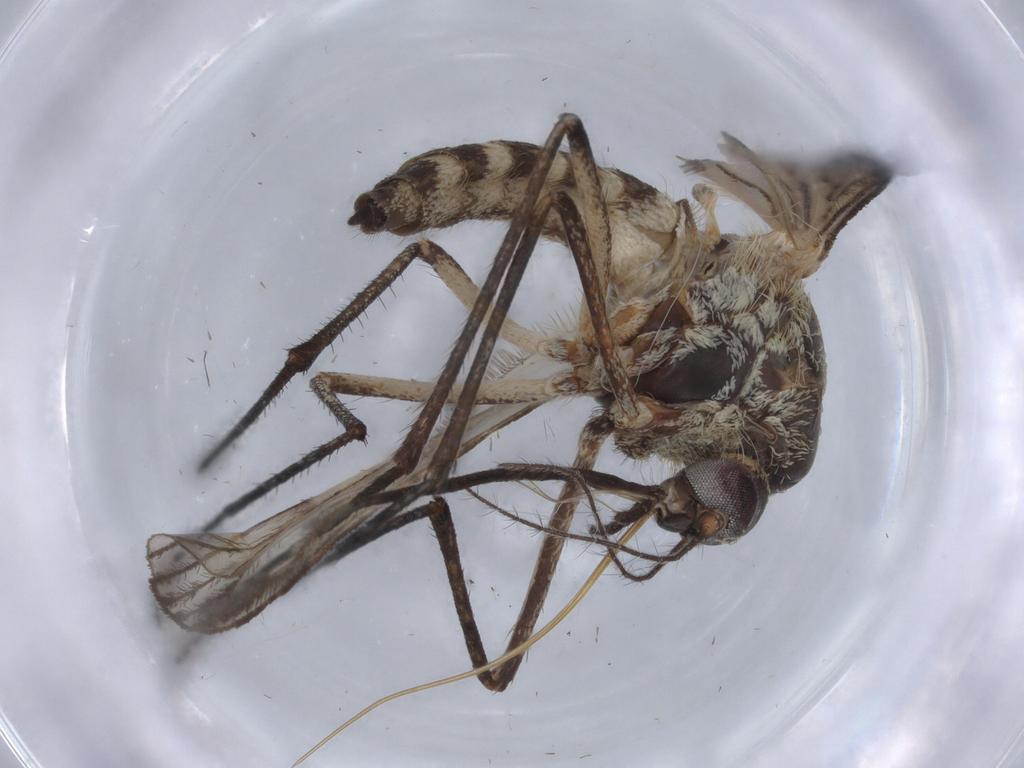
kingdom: Animalia
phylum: Arthropoda
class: Insecta
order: Diptera
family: Culicidae
